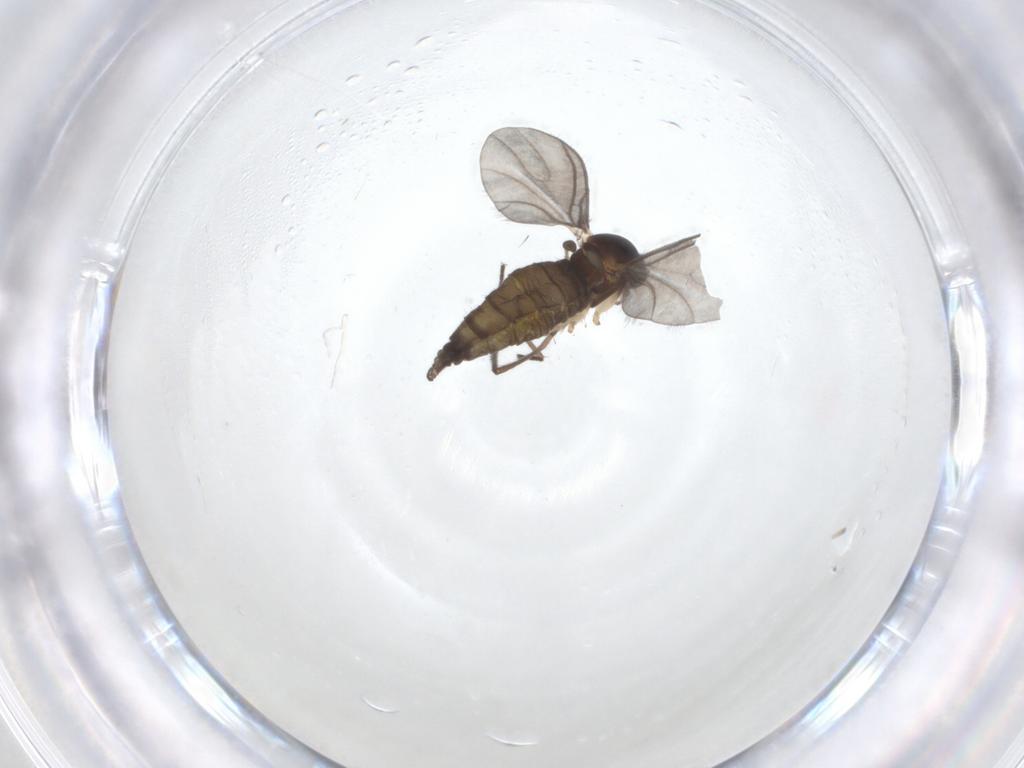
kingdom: Animalia
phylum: Arthropoda
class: Insecta
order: Diptera
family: Sciaridae
